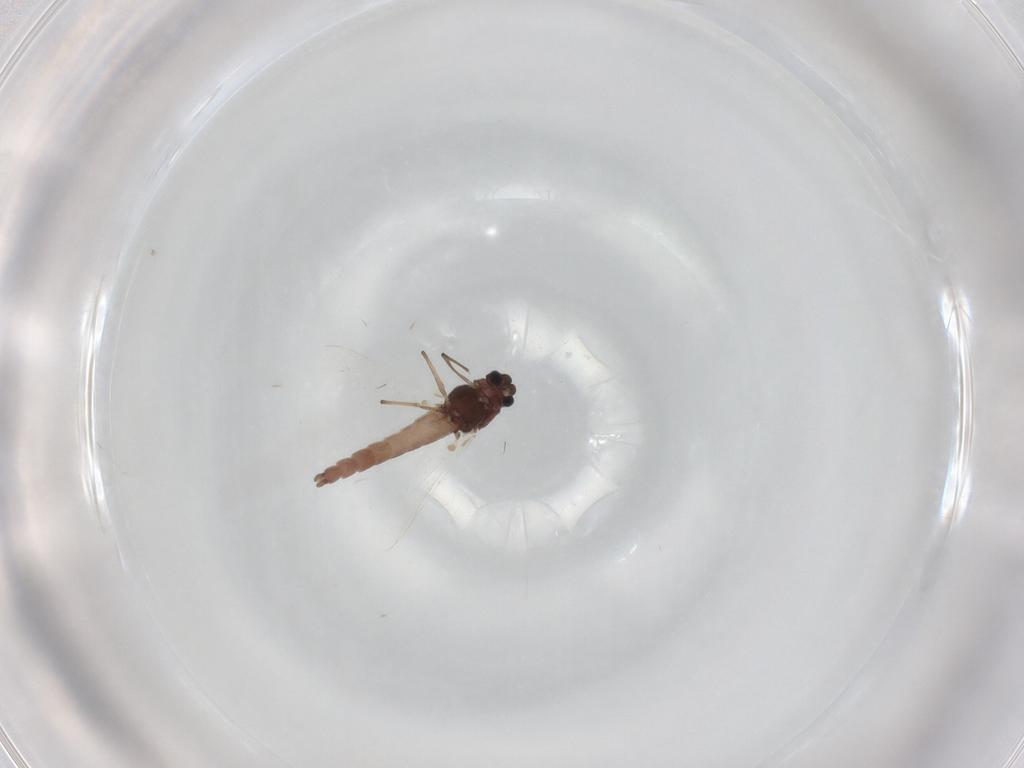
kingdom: Animalia
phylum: Arthropoda
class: Insecta
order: Diptera
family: Chironomidae
